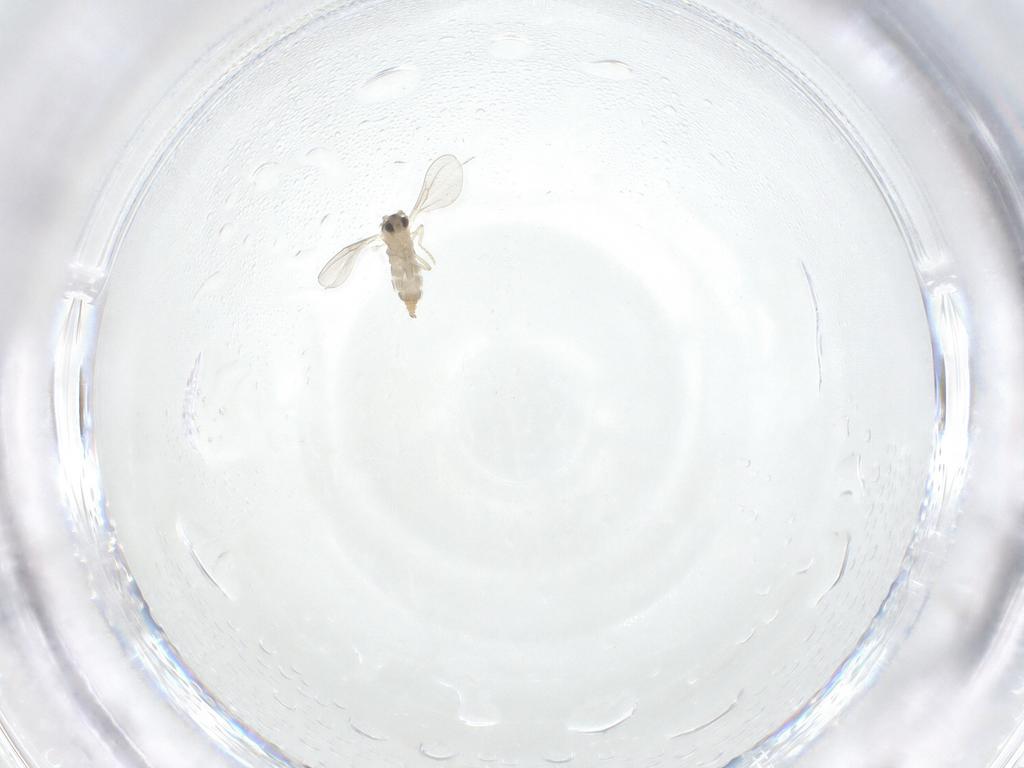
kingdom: Animalia
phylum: Arthropoda
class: Insecta
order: Diptera
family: Cecidomyiidae
